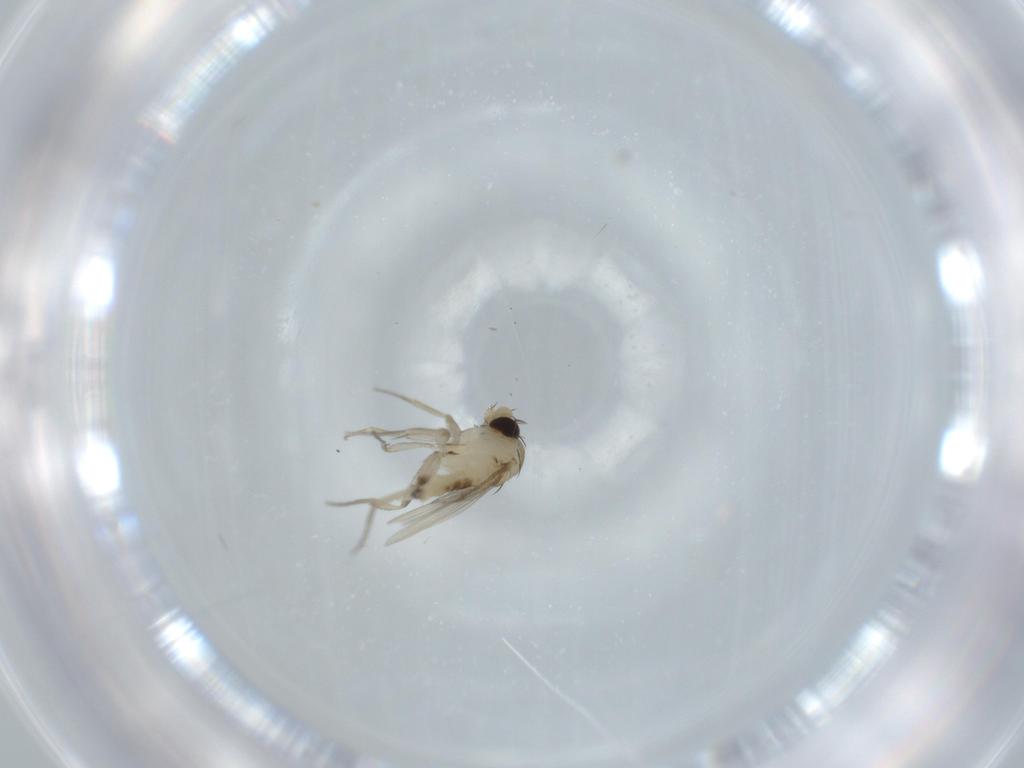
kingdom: Animalia
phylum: Arthropoda
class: Insecta
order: Diptera
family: Phoridae
